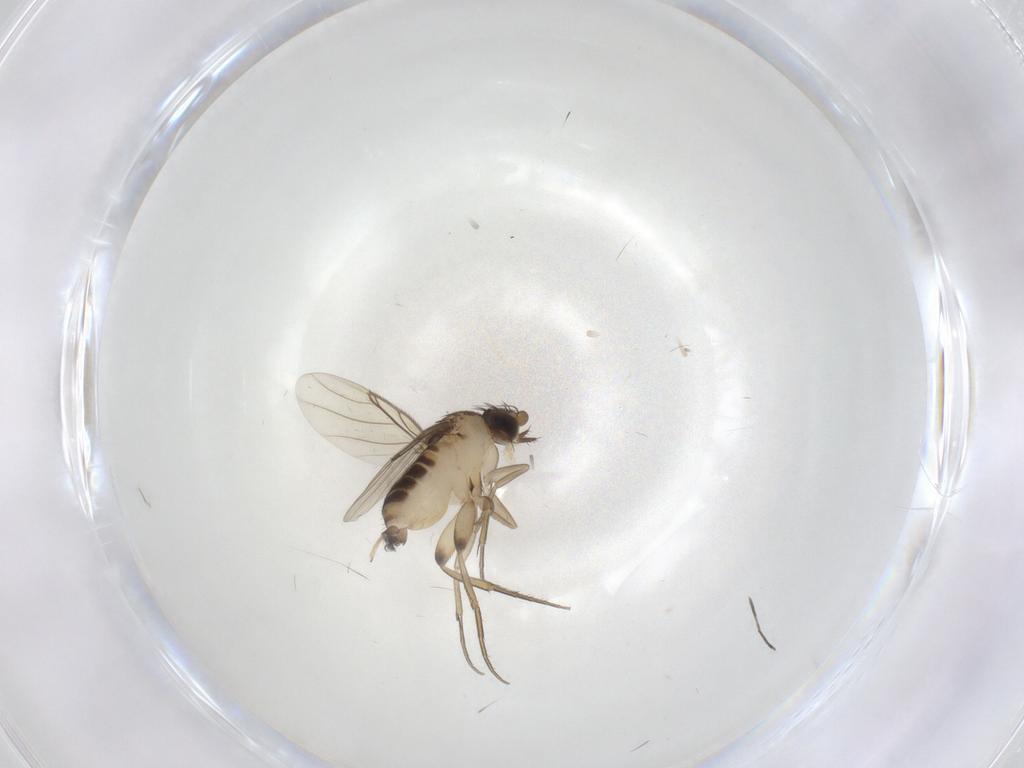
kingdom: Animalia
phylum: Arthropoda
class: Insecta
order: Diptera
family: Phoridae
